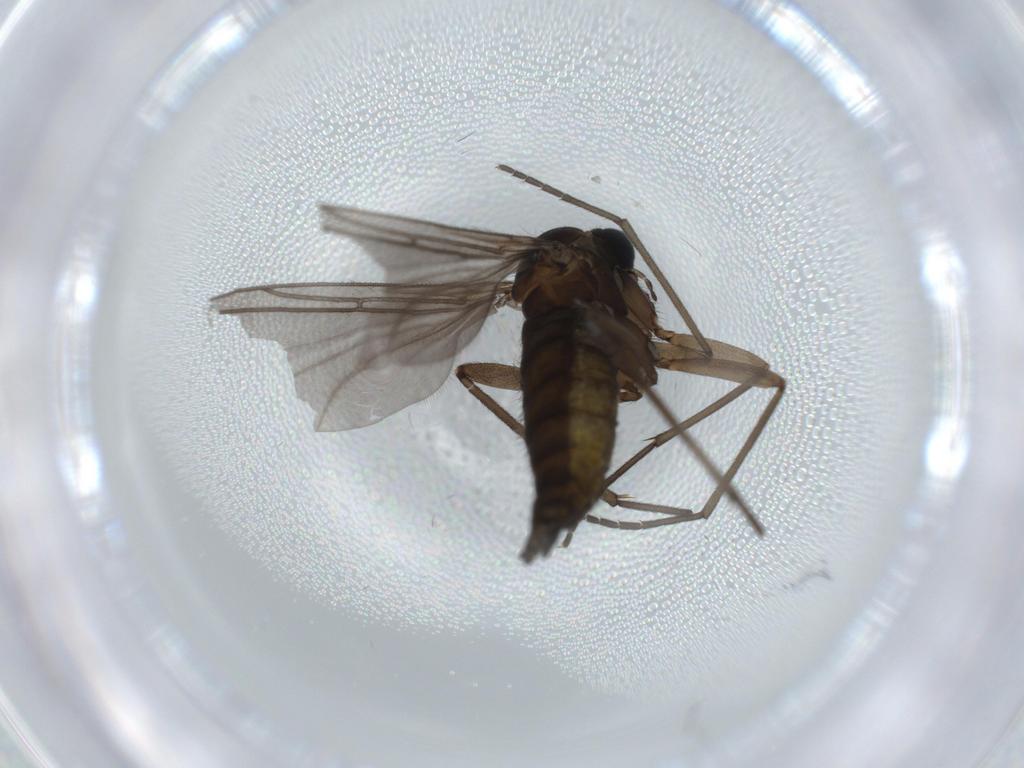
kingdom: Animalia
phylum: Arthropoda
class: Insecta
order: Diptera
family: Sciaridae
